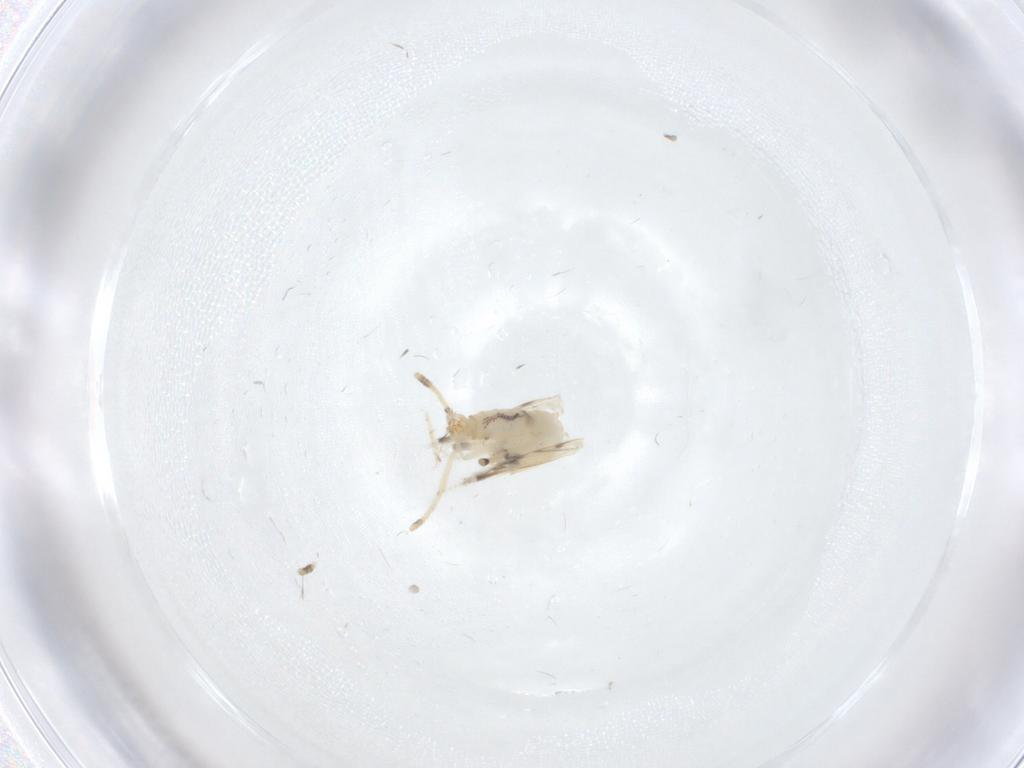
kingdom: Animalia
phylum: Arthropoda
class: Insecta
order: Diptera
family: Psychodidae
